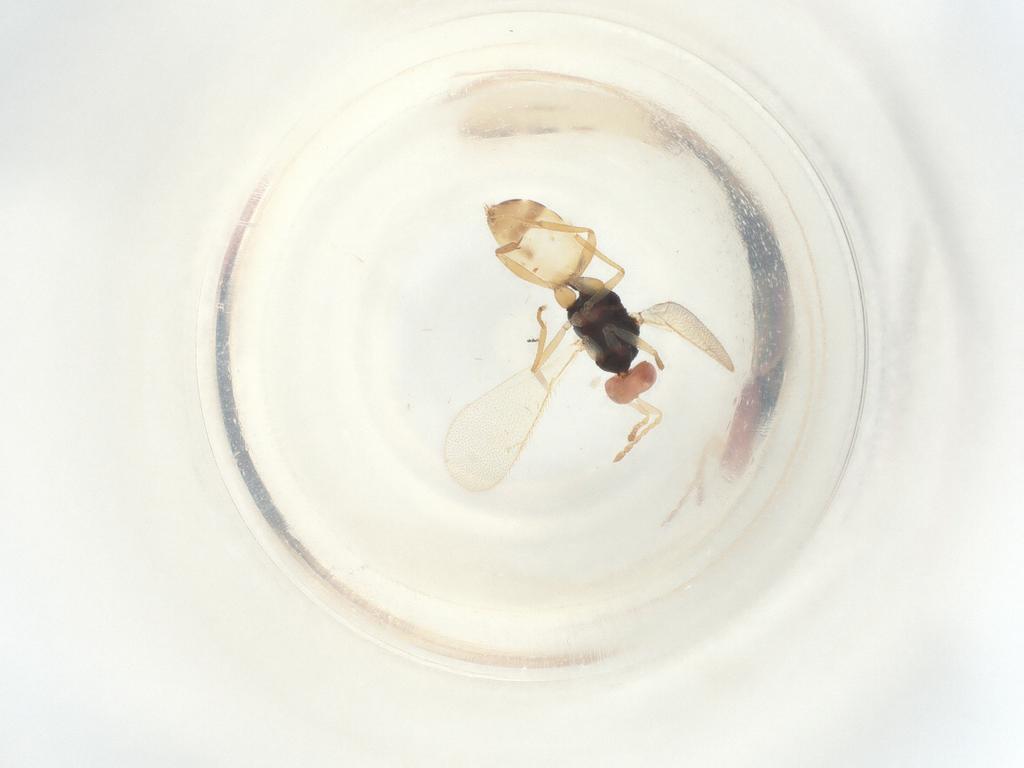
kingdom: Animalia
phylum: Arthropoda
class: Insecta
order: Hymenoptera
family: Eulophidae
